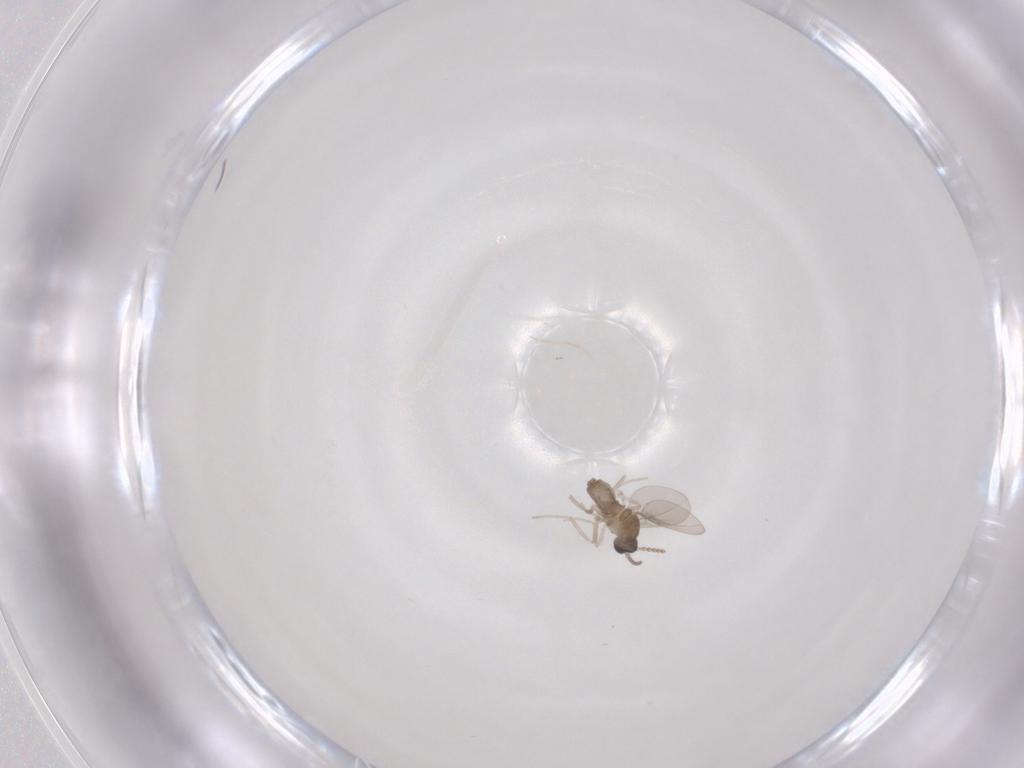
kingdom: Animalia
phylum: Arthropoda
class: Insecta
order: Diptera
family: Cecidomyiidae
